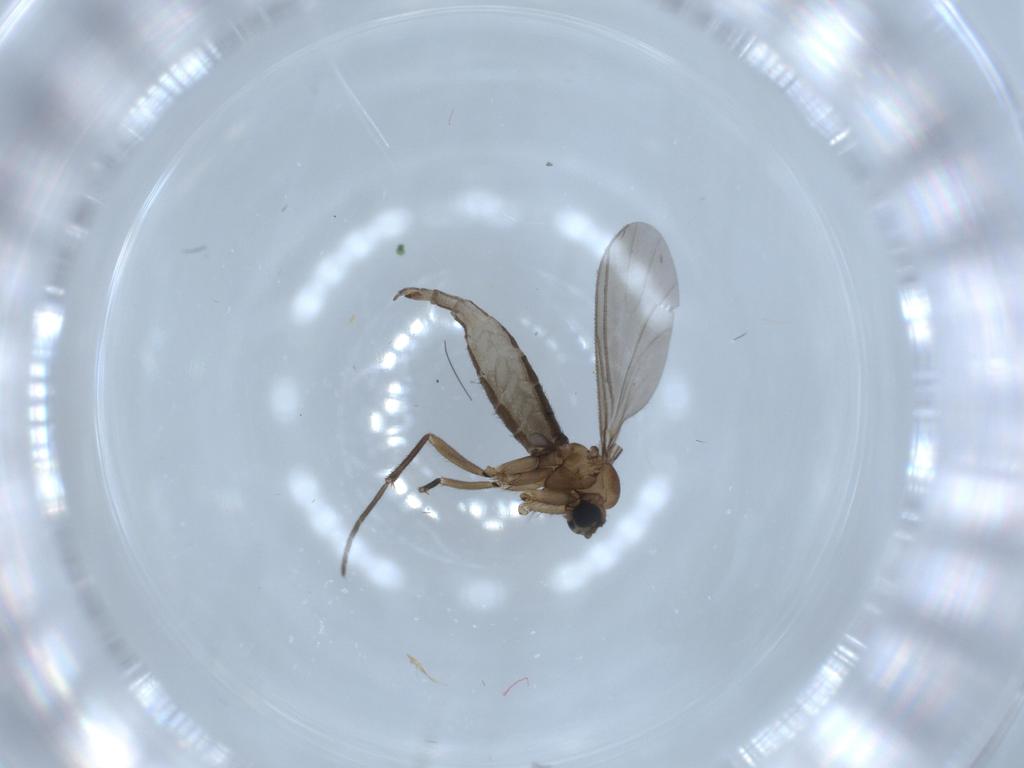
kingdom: Animalia
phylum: Arthropoda
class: Insecta
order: Diptera
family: Sciaridae
